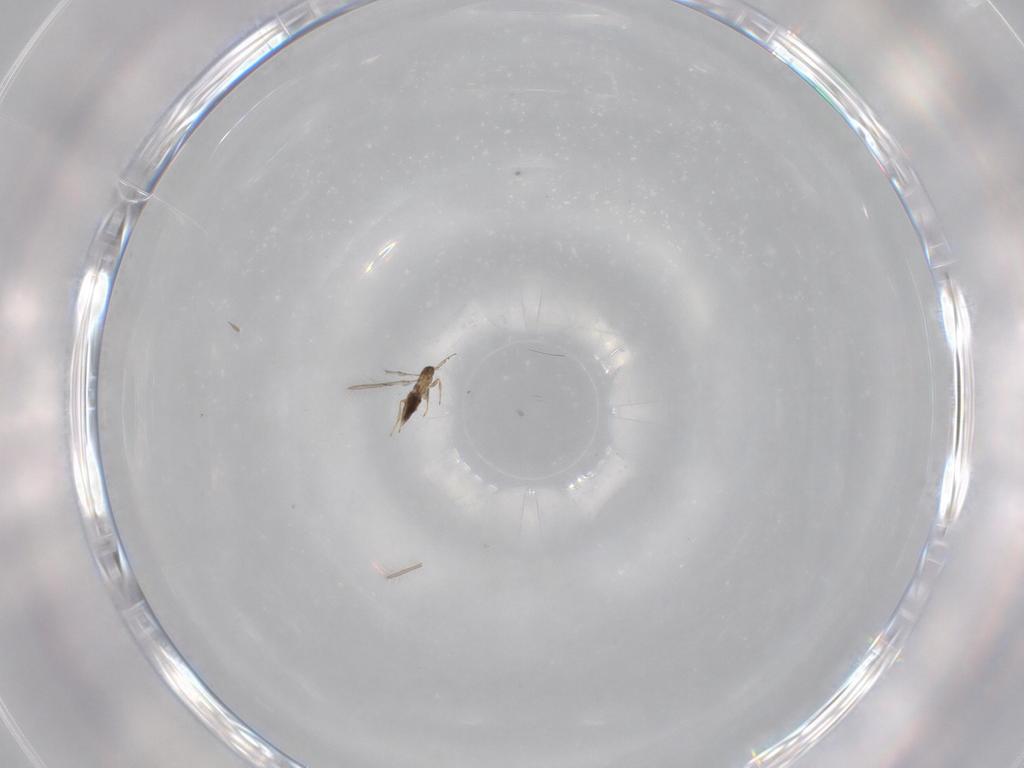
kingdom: Animalia
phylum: Arthropoda
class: Insecta
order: Hymenoptera
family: Mymaridae
